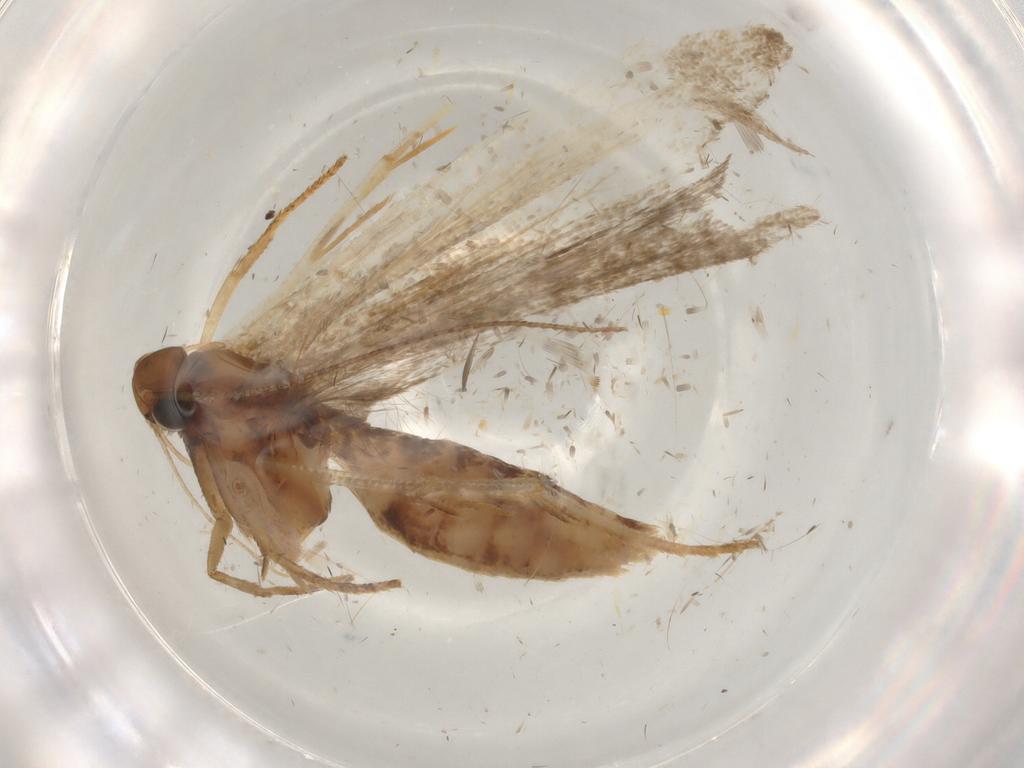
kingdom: Animalia
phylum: Arthropoda
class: Insecta
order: Lepidoptera
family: Gelechiidae
